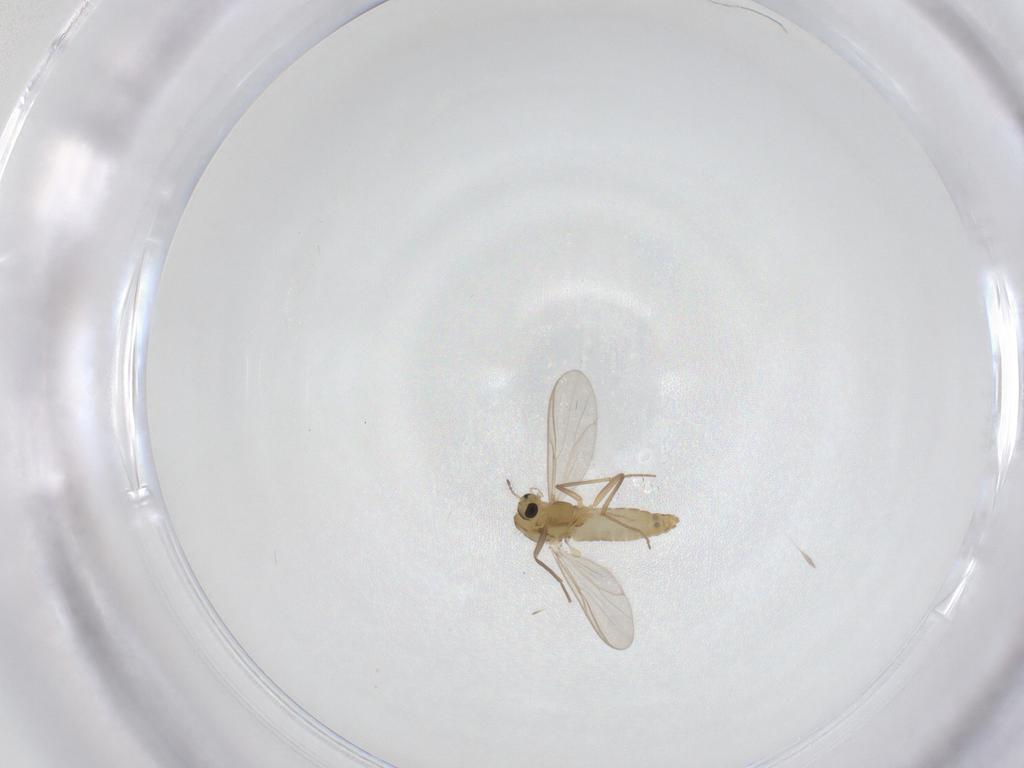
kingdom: Animalia
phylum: Arthropoda
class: Insecta
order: Diptera
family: Chironomidae
